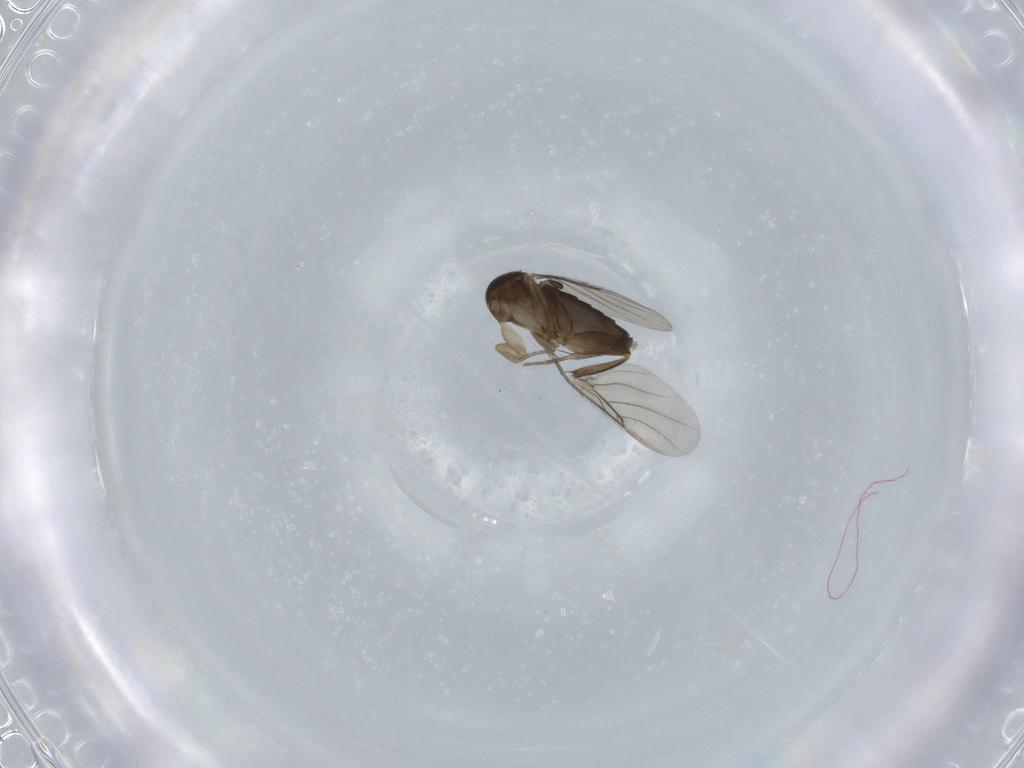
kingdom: Animalia
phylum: Arthropoda
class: Insecta
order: Diptera
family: Phoridae
